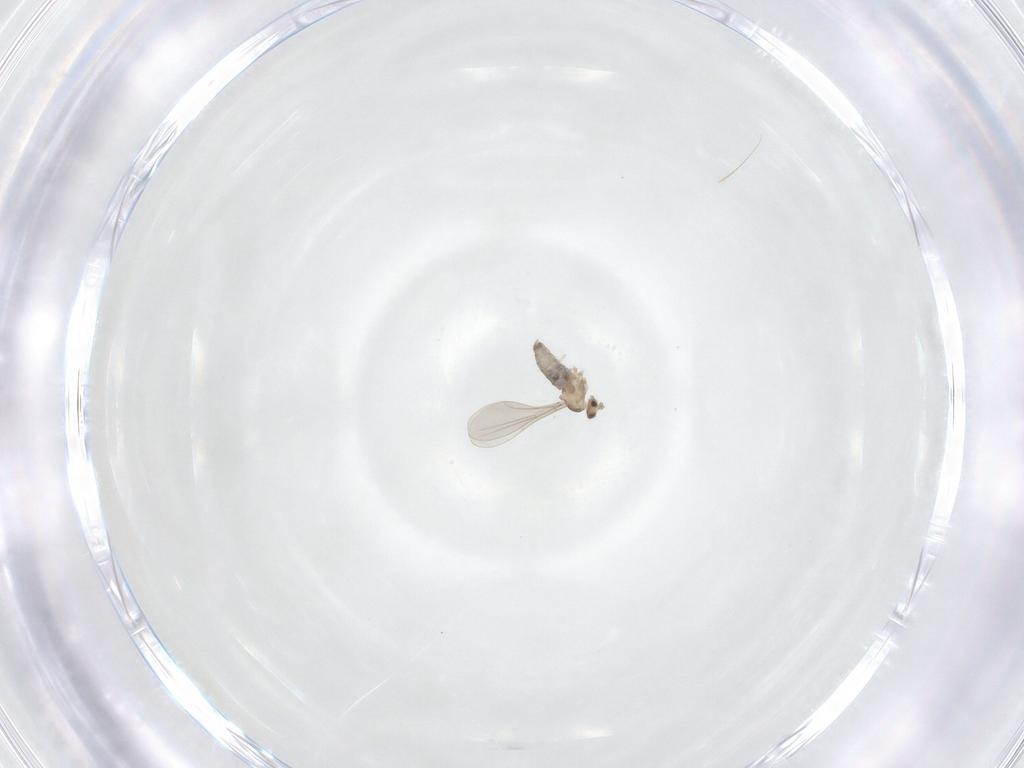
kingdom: Animalia
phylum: Arthropoda
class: Insecta
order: Diptera
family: Cecidomyiidae
